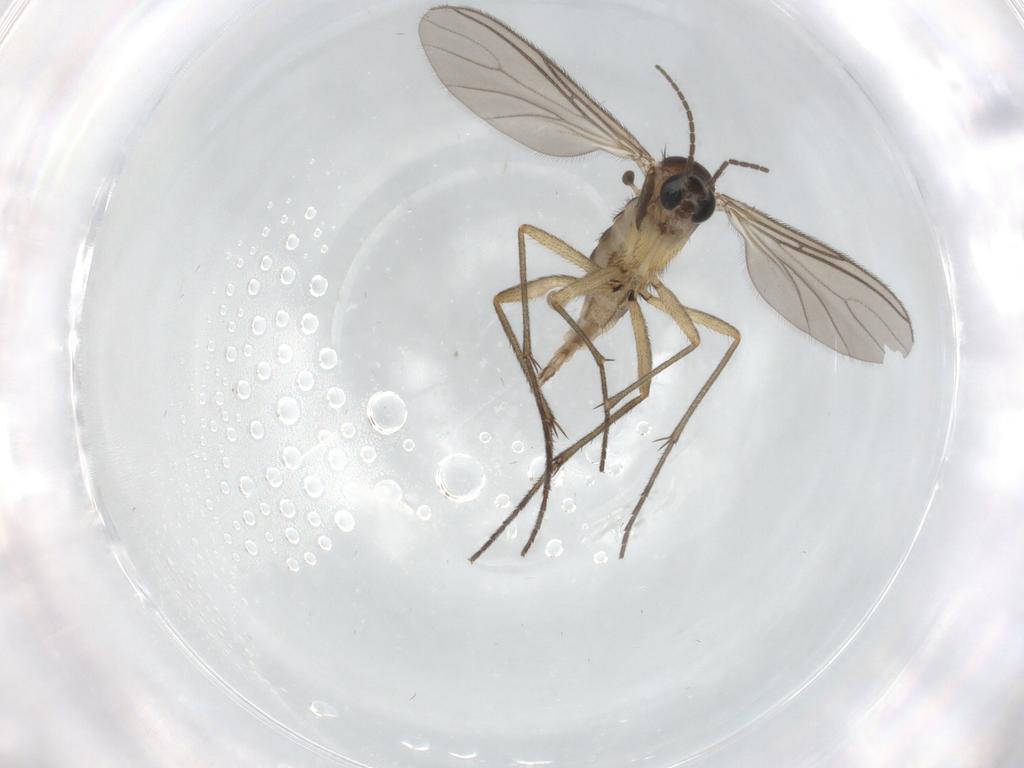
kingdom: Animalia
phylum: Arthropoda
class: Insecta
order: Diptera
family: Sciaridae
